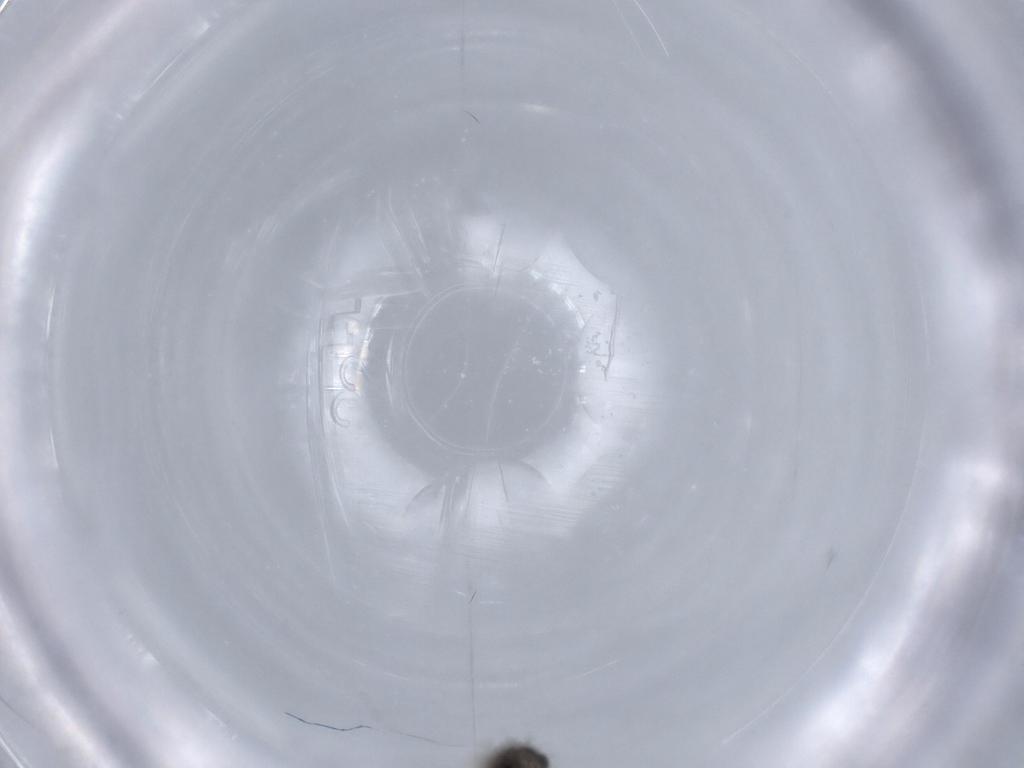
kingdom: Animalia
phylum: Arthropoda
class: Insecta
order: Diptera
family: Chironomidae
